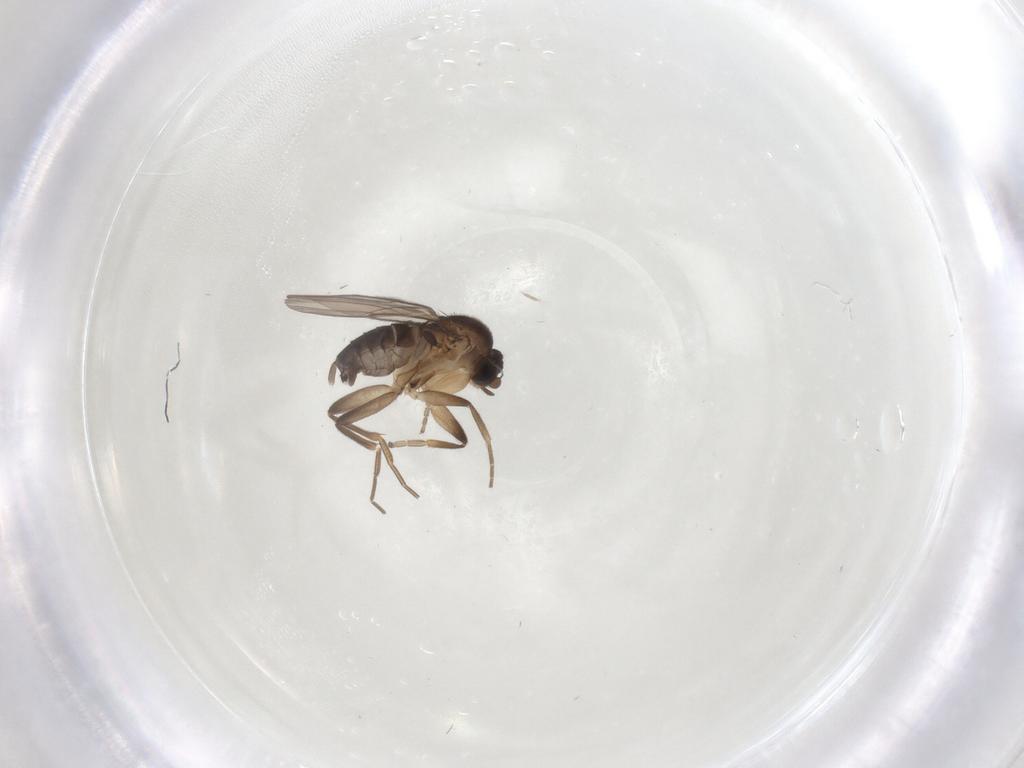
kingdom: Animalia
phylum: Arthropoda
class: Insecta
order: Diptera
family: Phoridae
